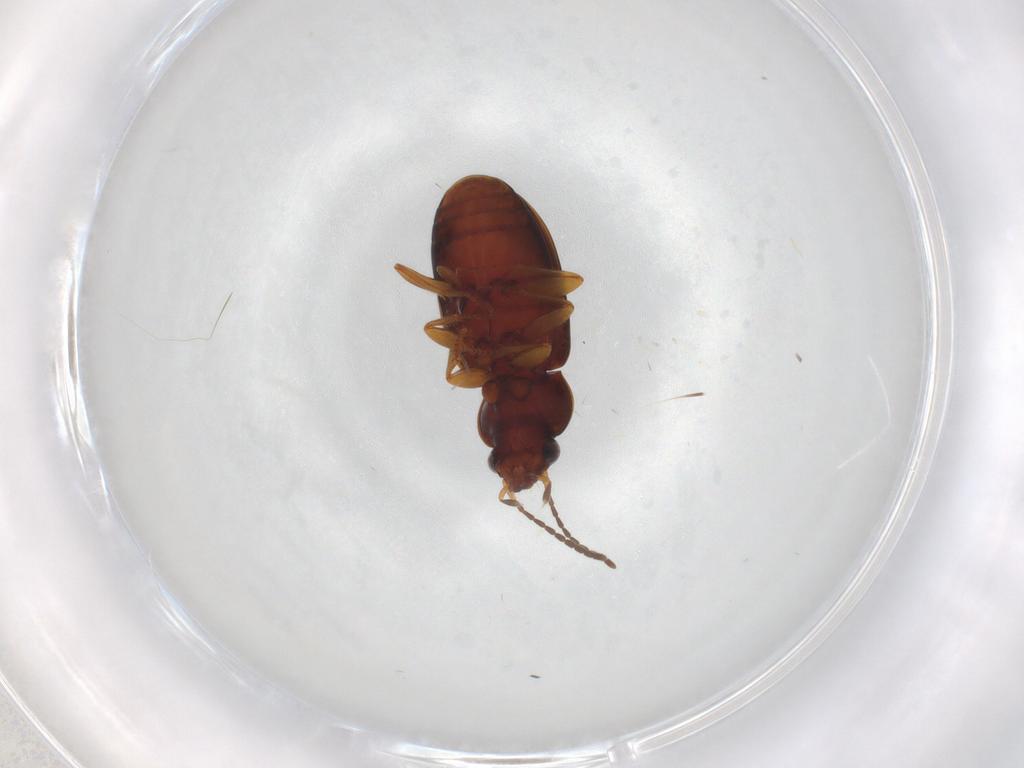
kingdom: Animalia
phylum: Arthropoda
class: Insecta
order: Coleoptera
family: Carabidae
